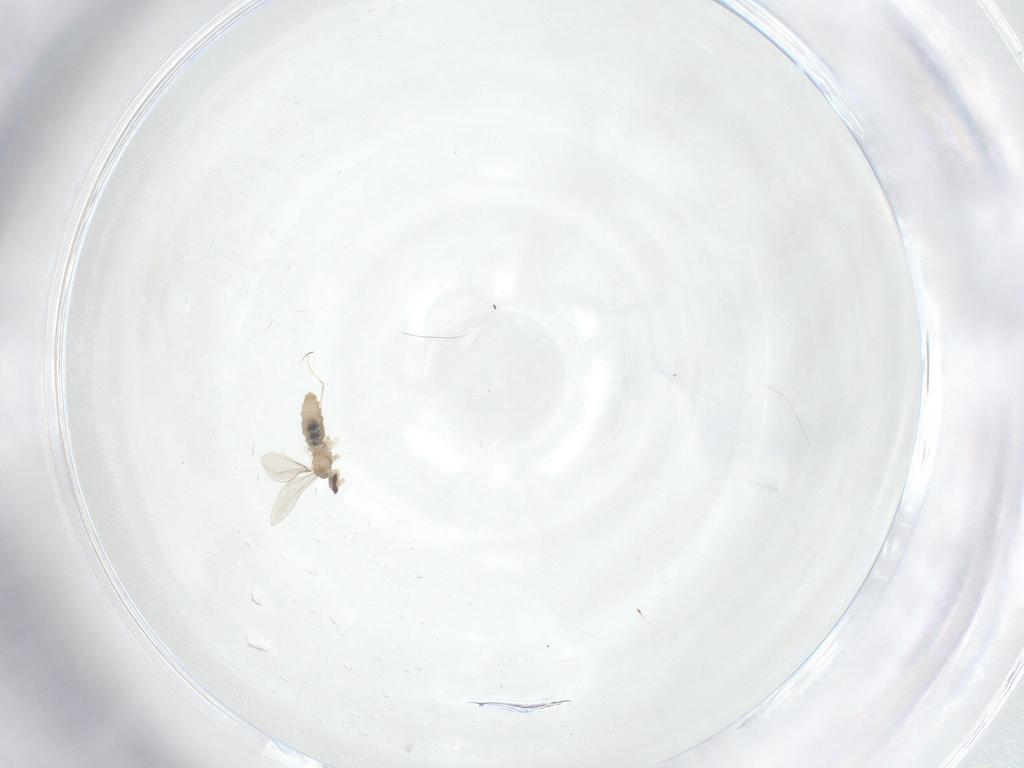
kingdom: Animalia
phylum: Arthropoda
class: Insecta
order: Diptera
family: Cecidomyiidae
